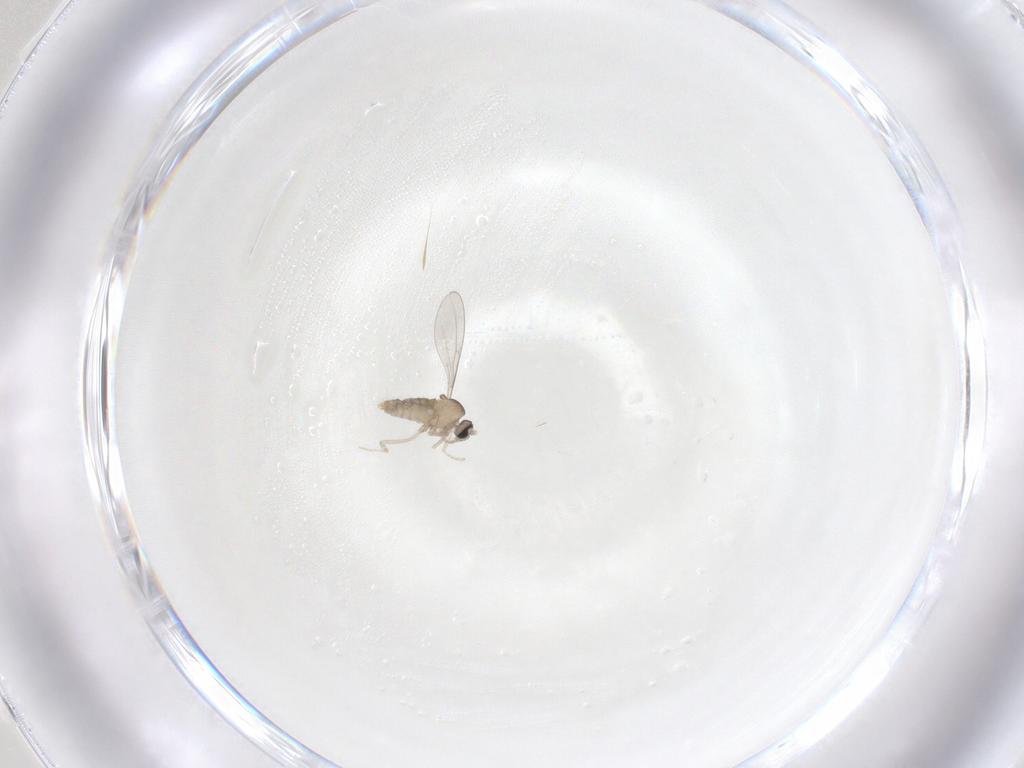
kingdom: Animalia
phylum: Arthropoda
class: Insecta
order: Diptera
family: Cecidomyiidae
